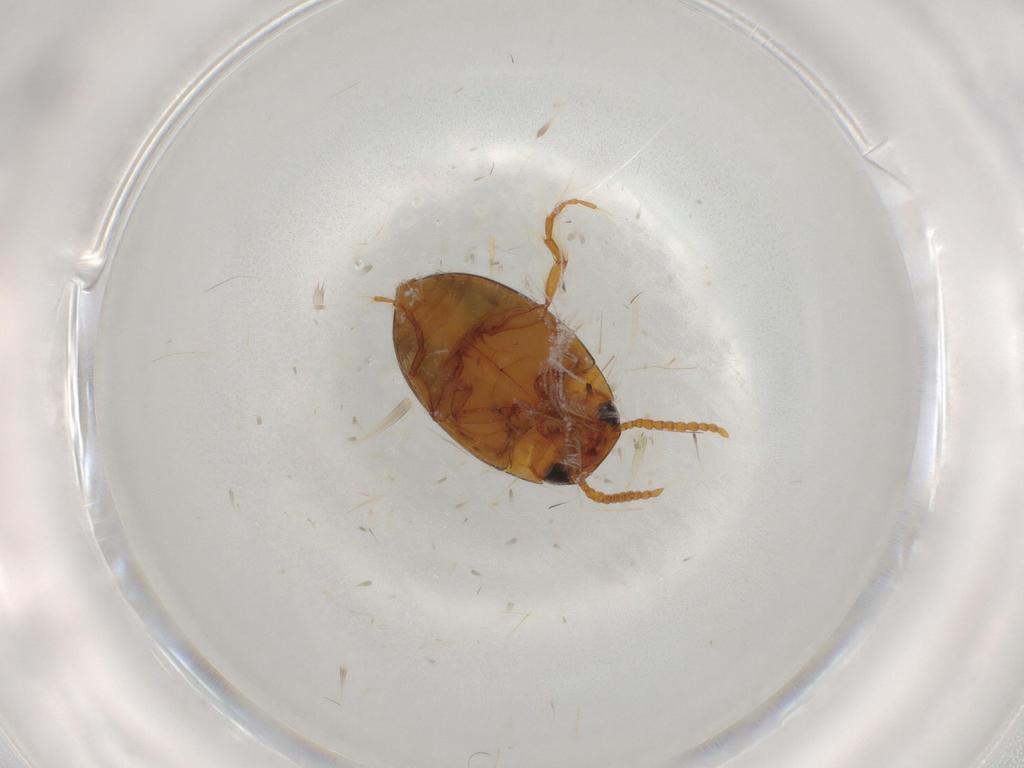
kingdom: Animalia
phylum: Arthropoda
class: Insecta
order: Coleoptera
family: Dytiscidae
